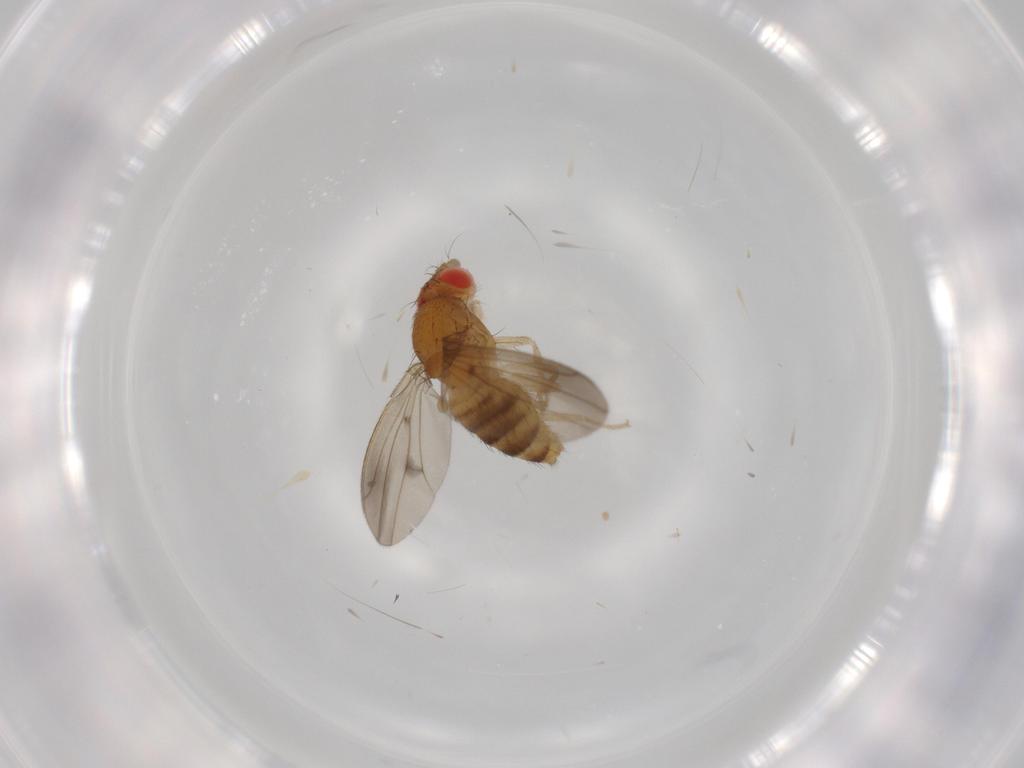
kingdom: Animalia
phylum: Arthropoda
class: Insecta
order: Diptera
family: Drosophilidae
